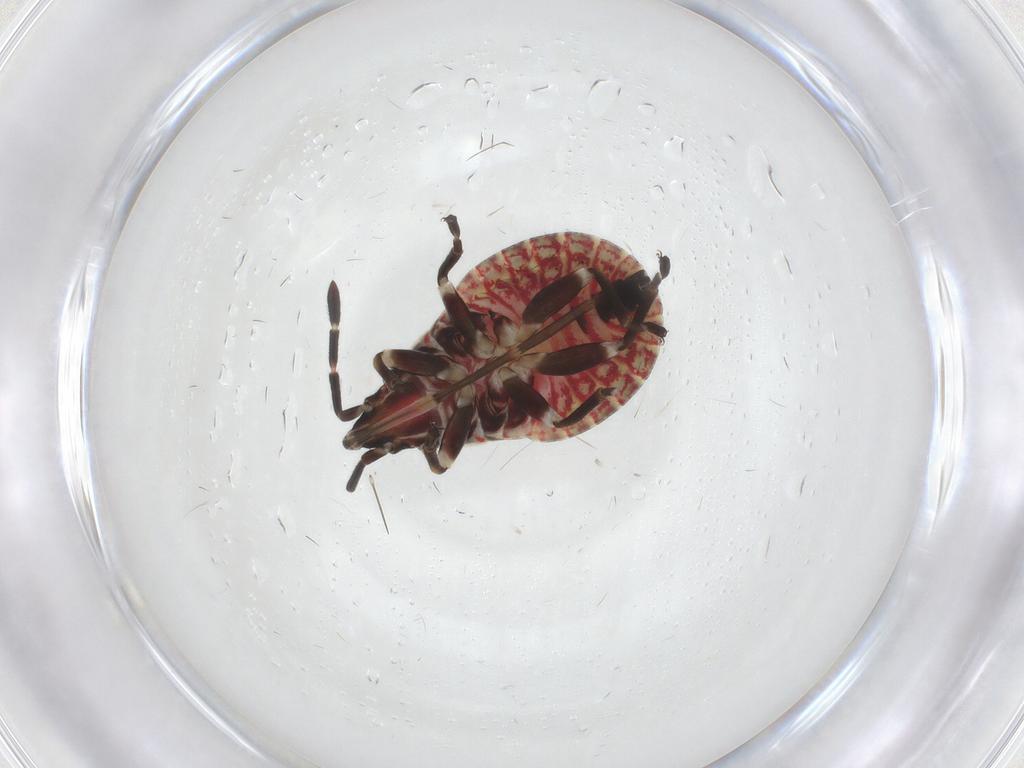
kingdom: Animalia
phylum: Arthropoda
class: Insecta
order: Hemiptera
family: Rhyparochromidae
